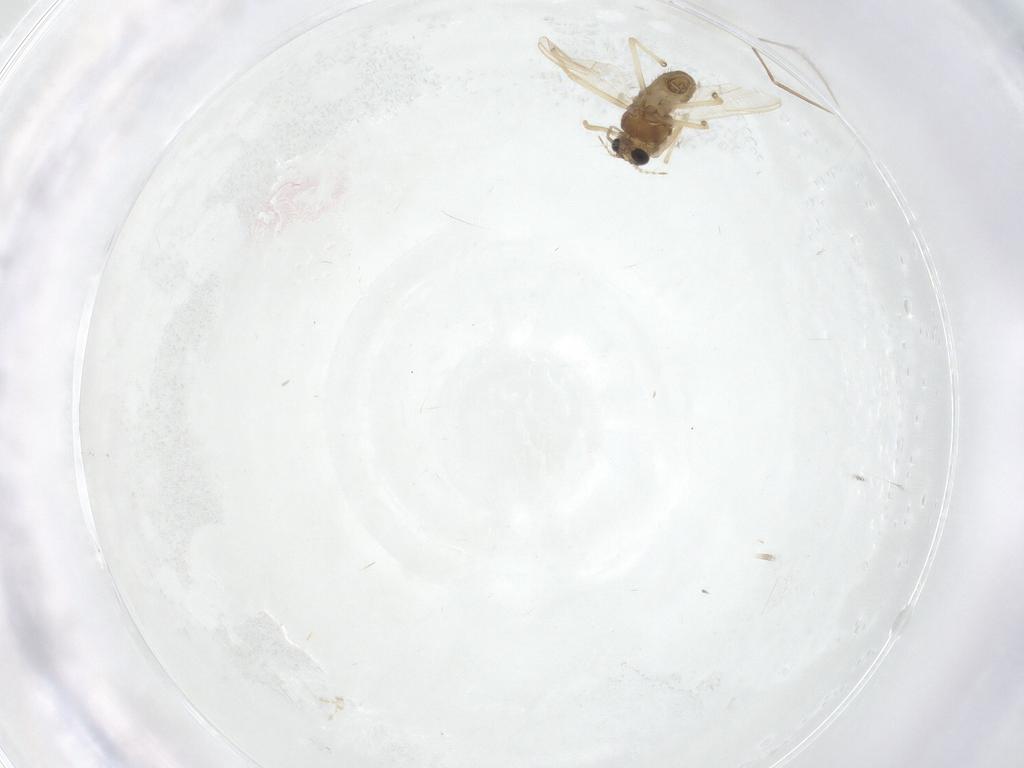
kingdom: Animalia
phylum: Arthropoda
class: Insecta
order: Diptera
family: Chironomidae
